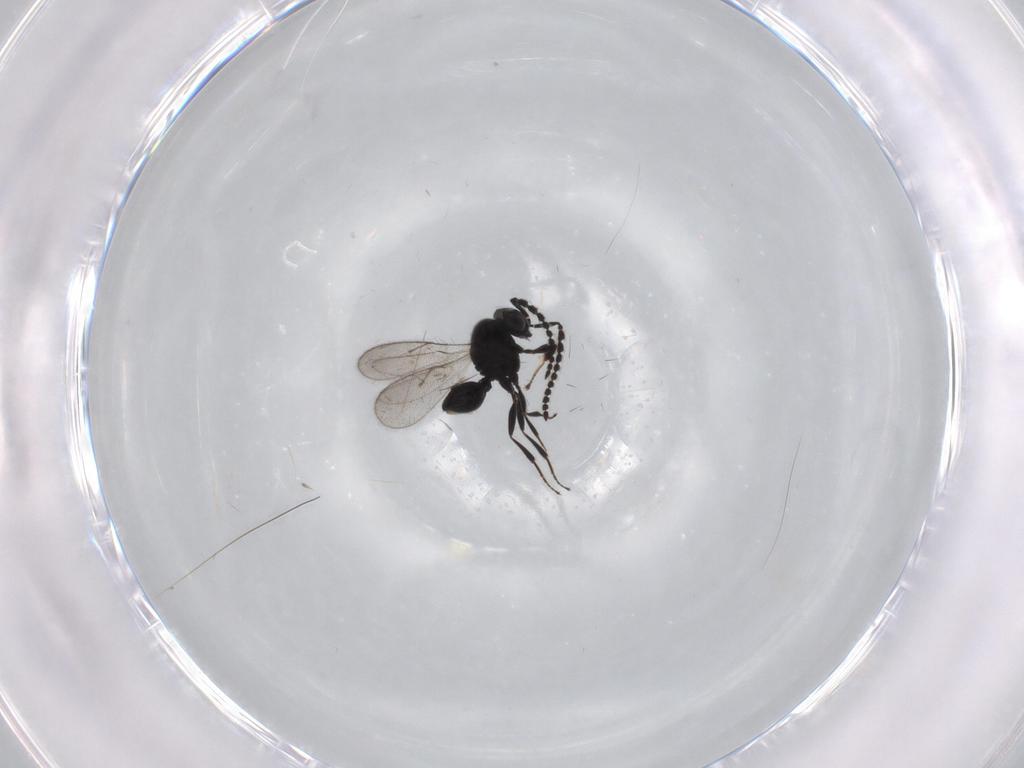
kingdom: Animalia
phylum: Arthropoda
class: Insecta
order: Hymenoptera
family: Scelionidae
